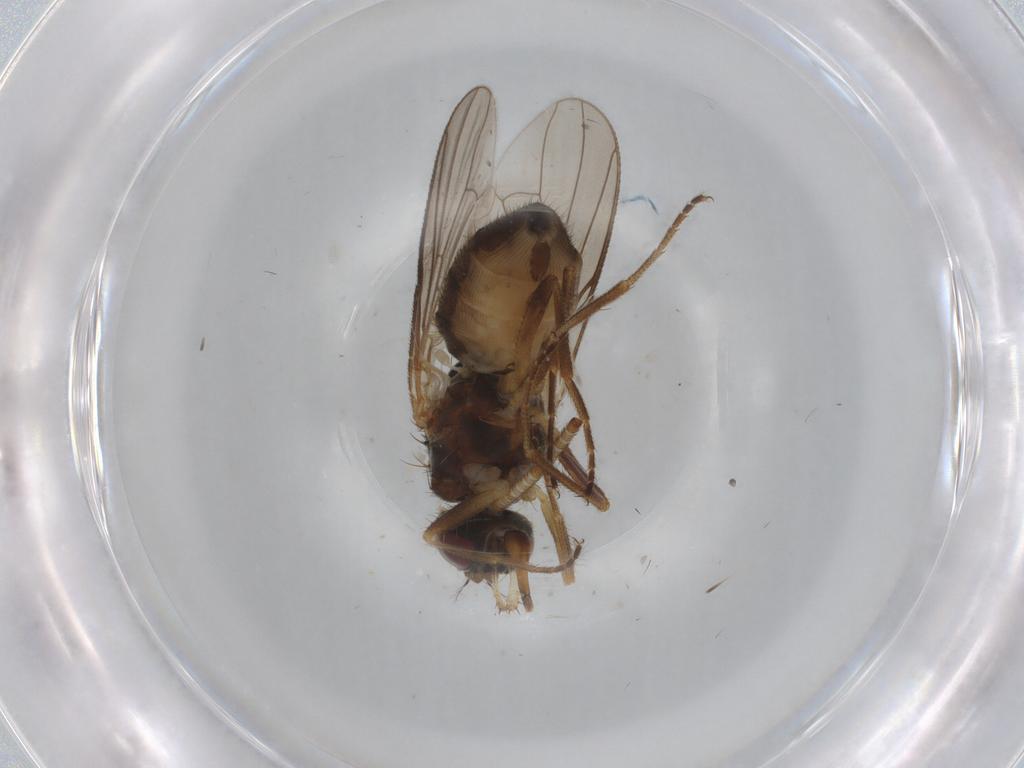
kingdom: Animalia
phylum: Arthropoda
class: Insecta
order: Diptera
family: Muscidae
